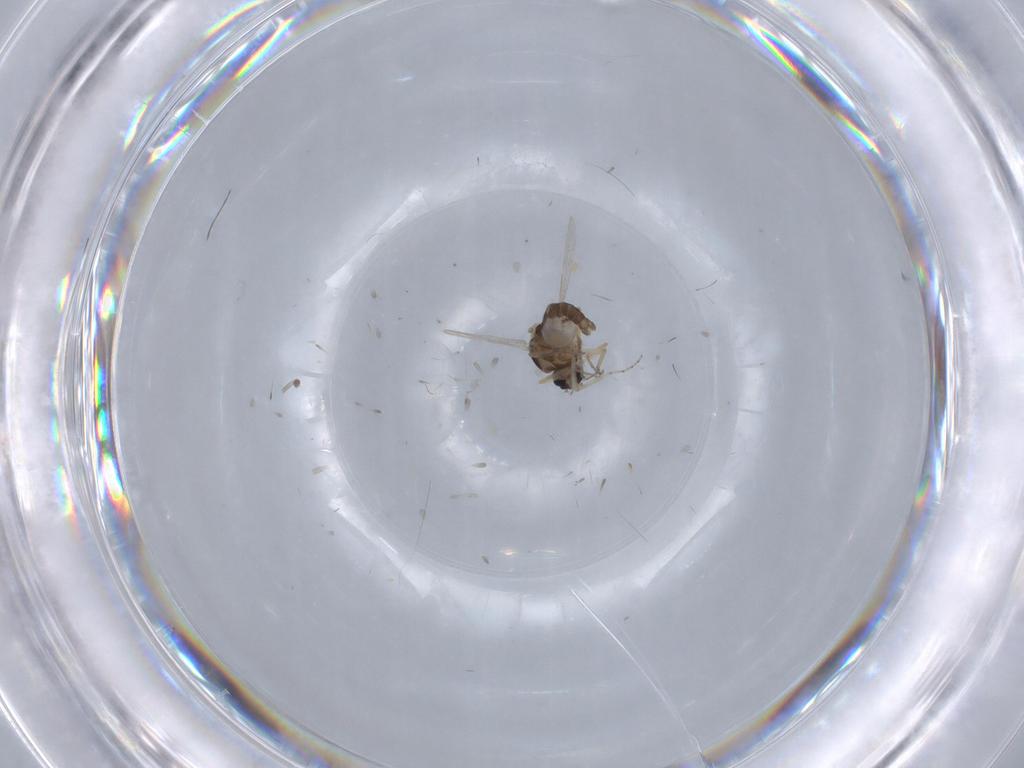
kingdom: Animalia
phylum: Arthropoda
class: Insecta
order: Diptera
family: Ceratopogonidae
